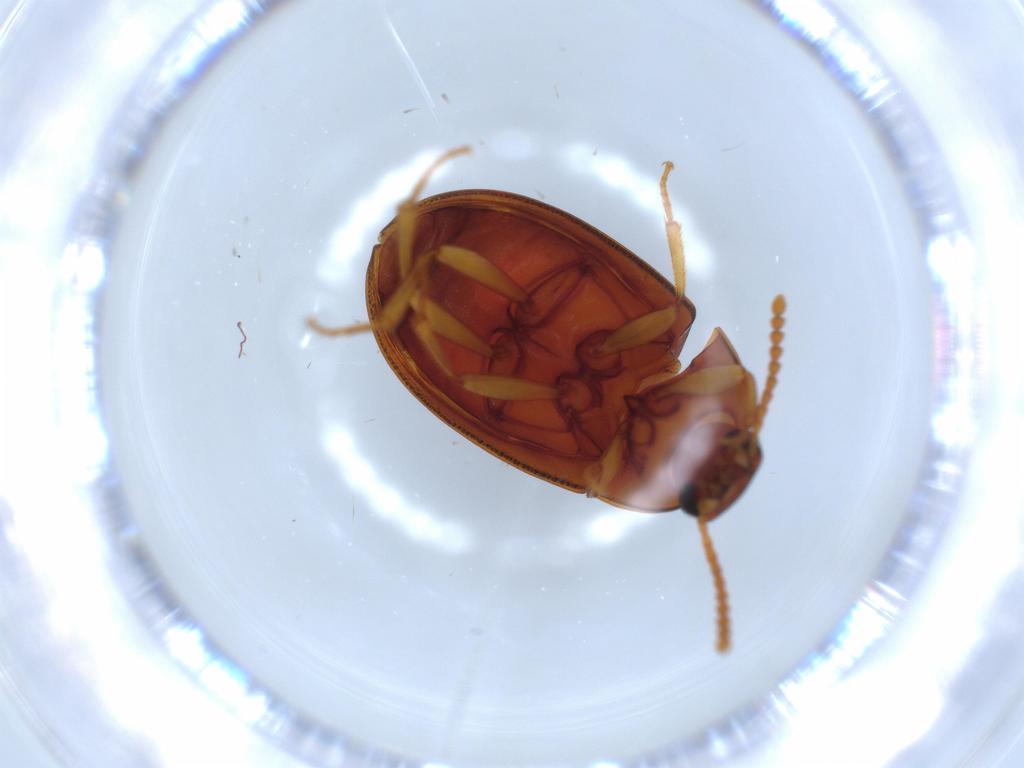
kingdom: Animalia
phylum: Arthropoda
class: Insecta
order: Coleoptera
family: Tenebrionidae
